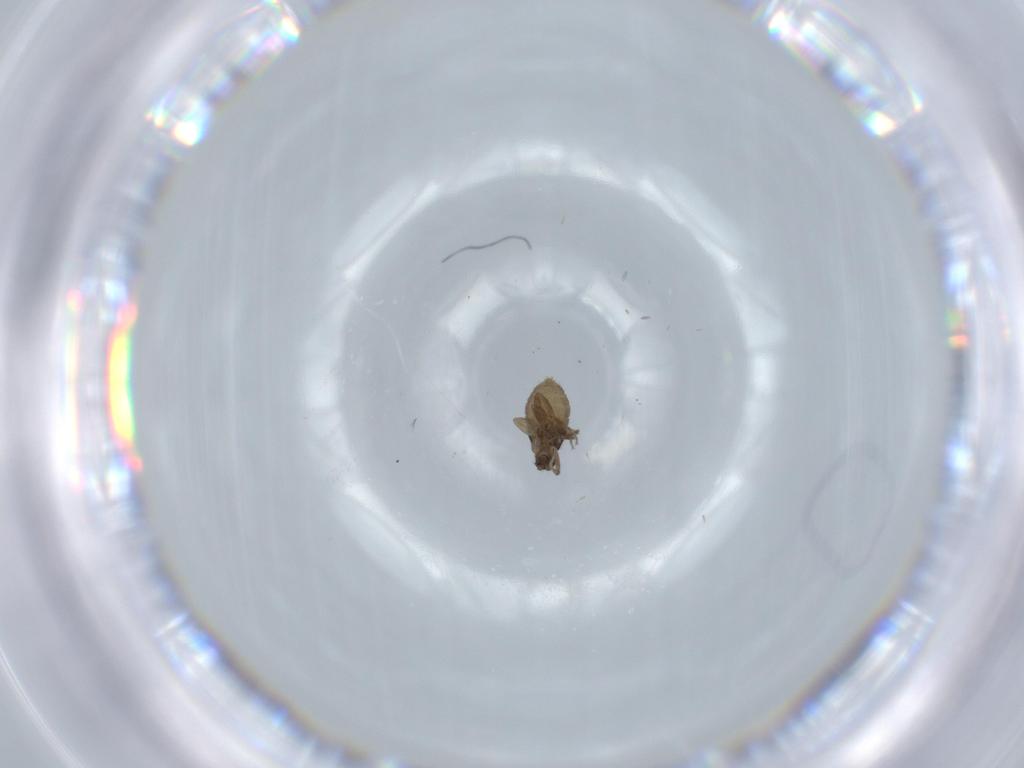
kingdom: Animalia
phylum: Arthropoda
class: Insecta
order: Diptera
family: Phoridae
